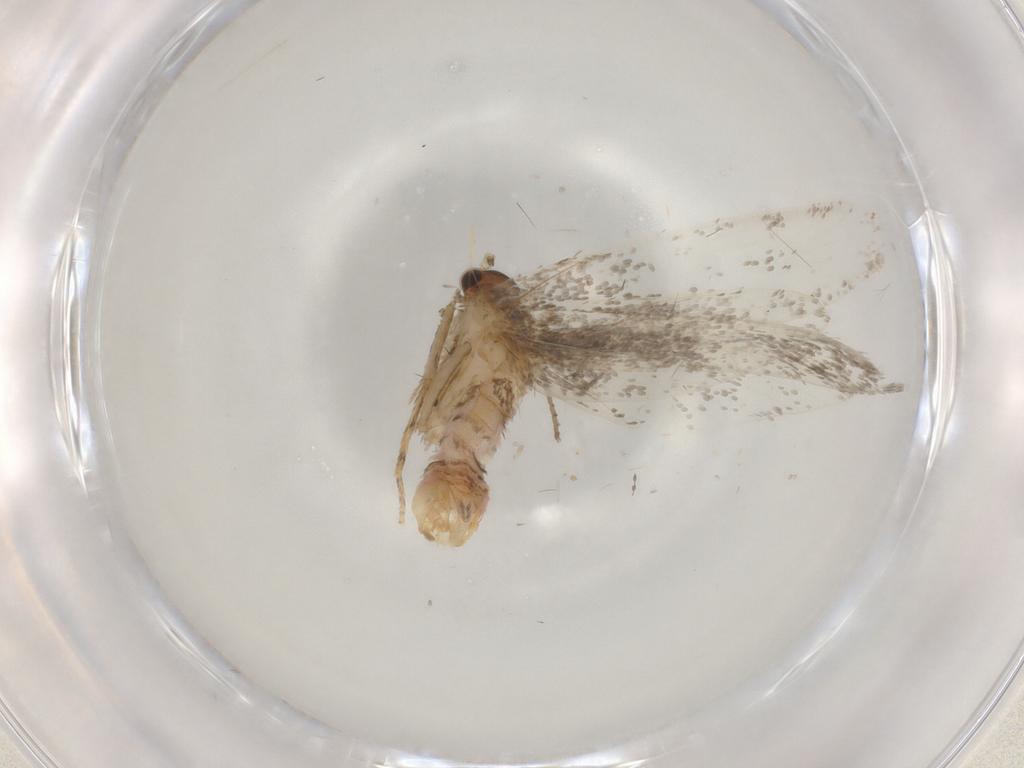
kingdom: Animalia
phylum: Arthropoda
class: Insecta
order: Lepidoptera
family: Dryadaulidae
